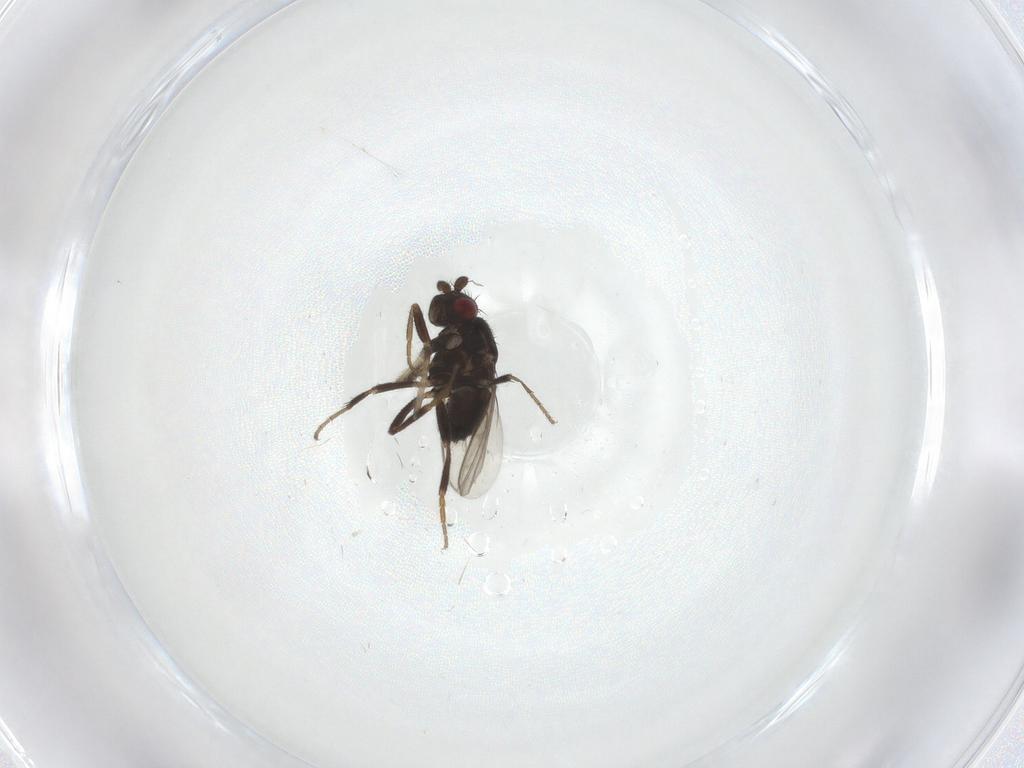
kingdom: Animalia
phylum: Arthropoda
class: Insecta
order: Diptera
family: Sphaeroceridae
